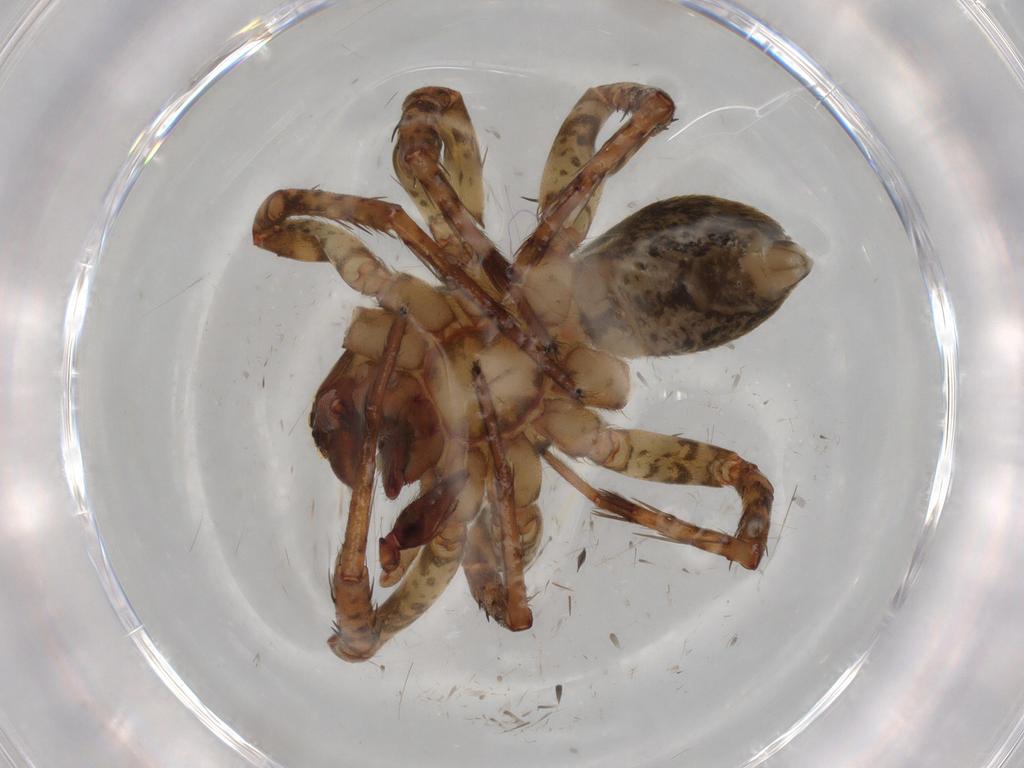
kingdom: Animalia
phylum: Arthropoda
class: Arachnida
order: Araneae
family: Anyphaenidae
